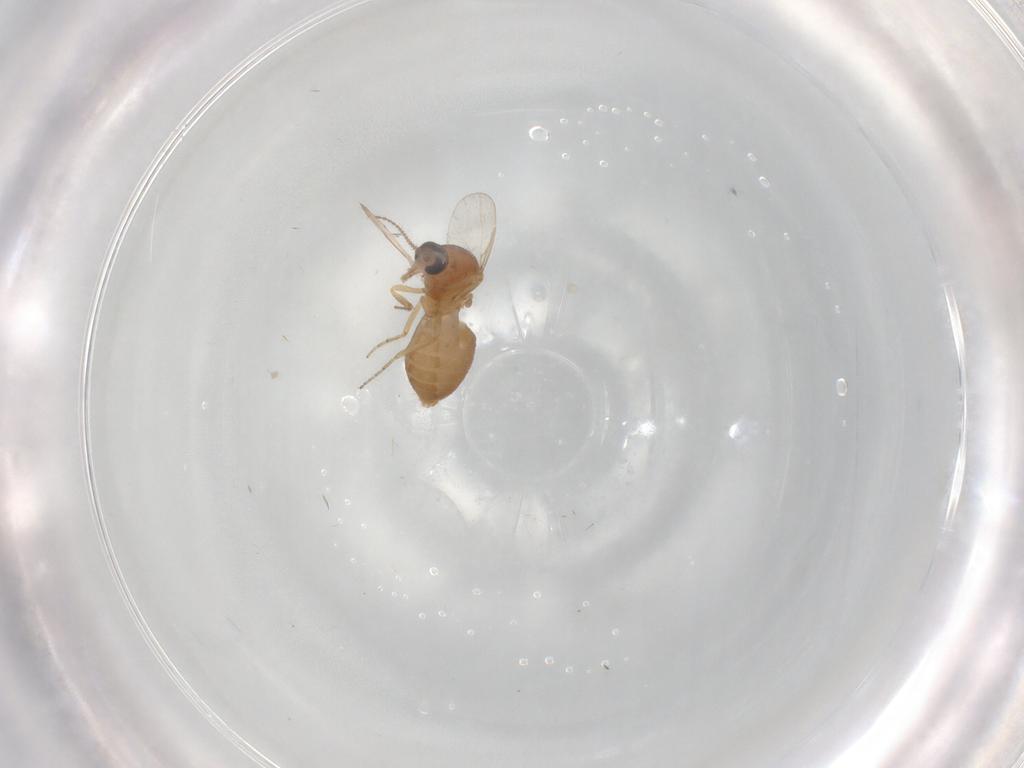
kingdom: Animalia
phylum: Arthropoda
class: Insecta
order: Diptera
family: Ceratopogonidae
